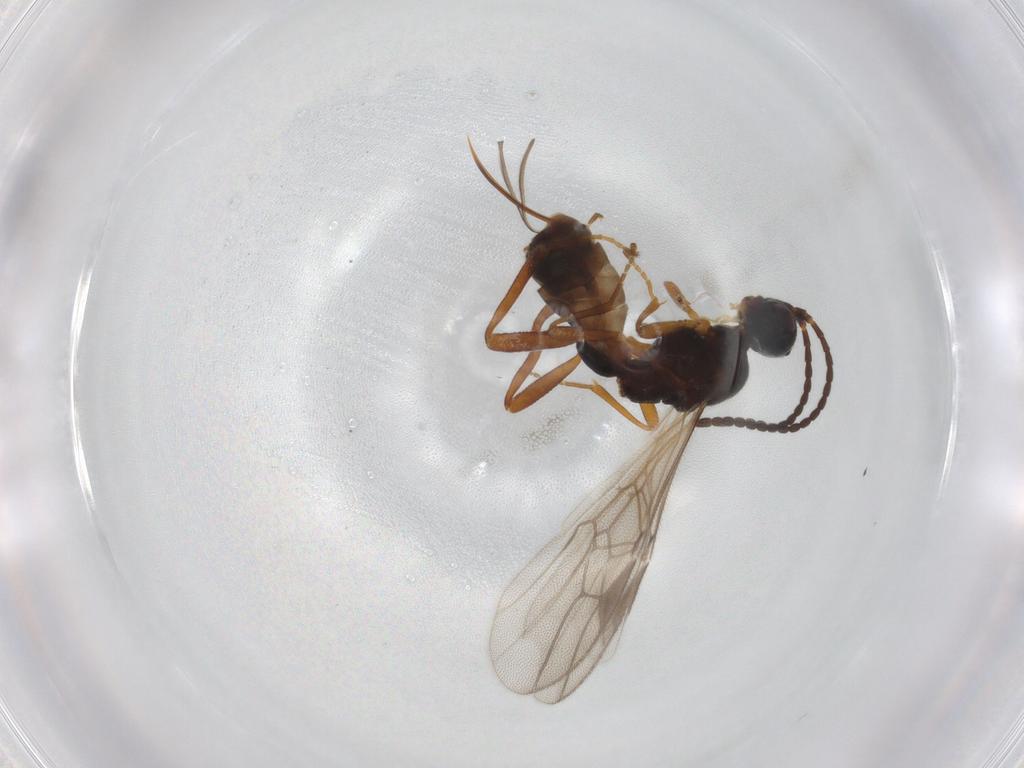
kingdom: Animalia
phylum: Arthropoda
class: Insecta
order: Hymenoptera
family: Braconidae
